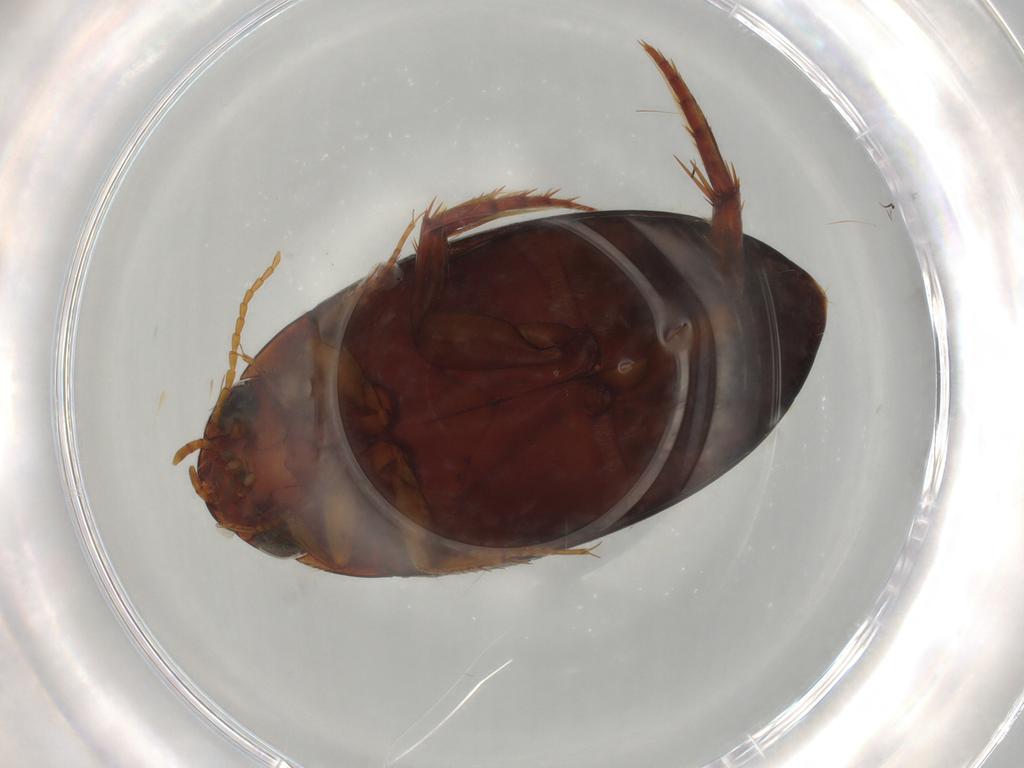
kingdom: Animalia
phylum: Arthropoda
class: Insecta
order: Coleoptera
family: Dytiscidae
